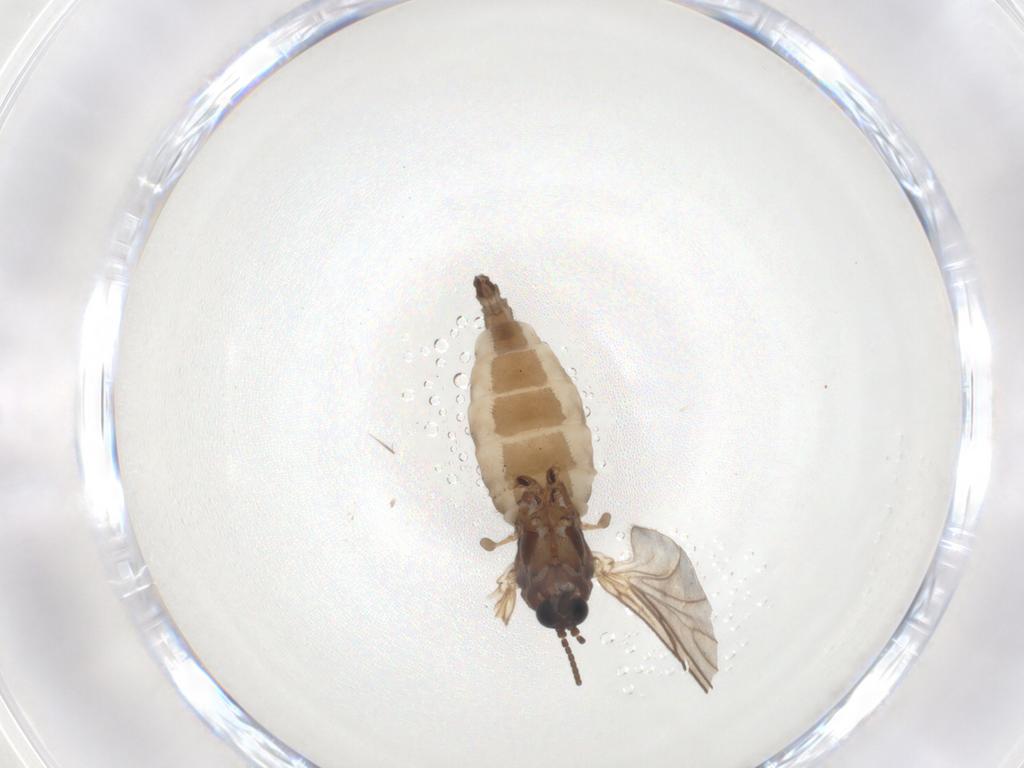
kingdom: Animalia
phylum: Arthropoda
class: Insecta
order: Diptera
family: Sciaridae
